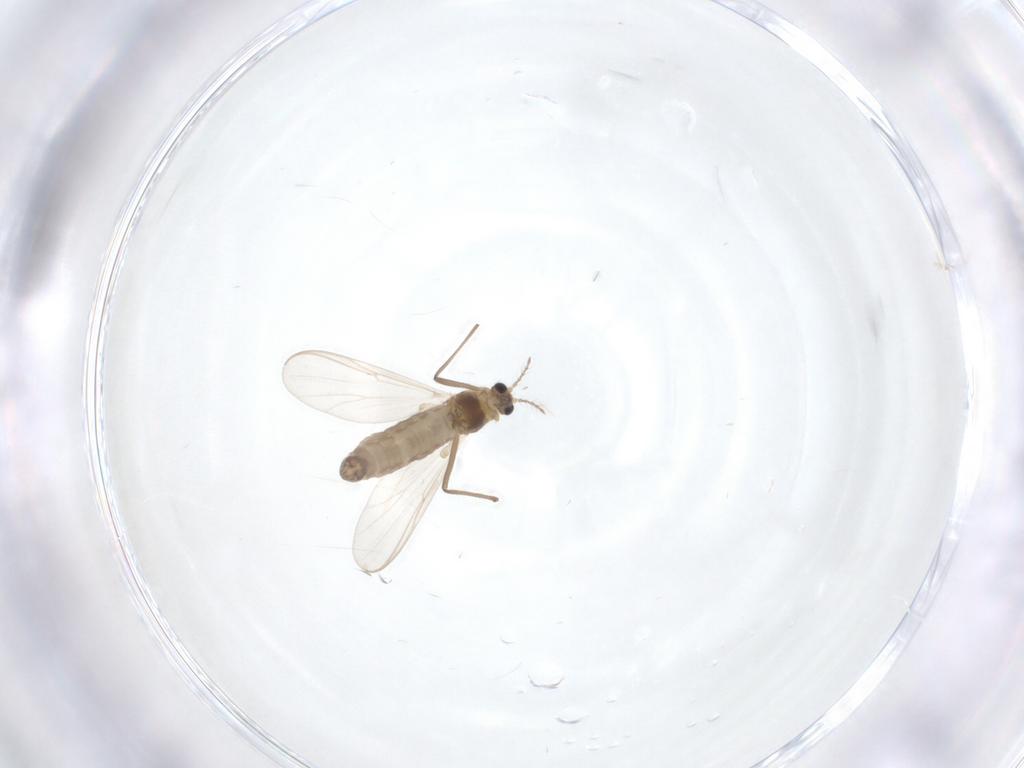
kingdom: Animalia
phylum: Arthropoda
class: Insecta
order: Diptera
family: Chironomidae
